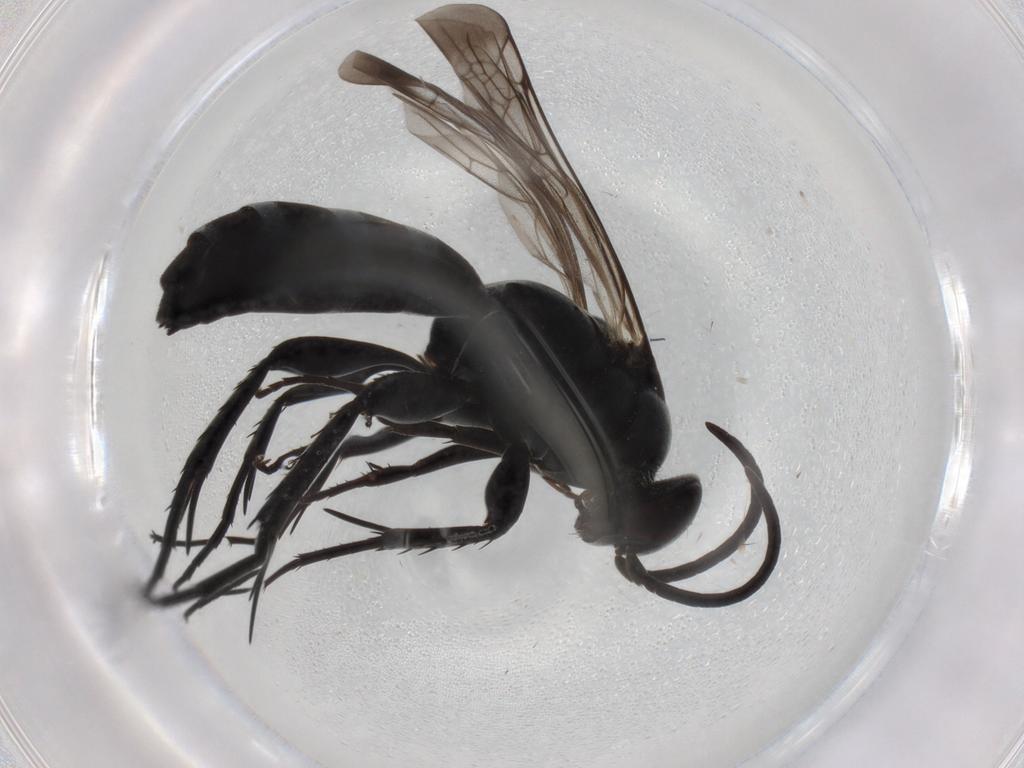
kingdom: Animalia
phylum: Arthropoda
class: Insecta
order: Hymenoptera
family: Pompilidae
